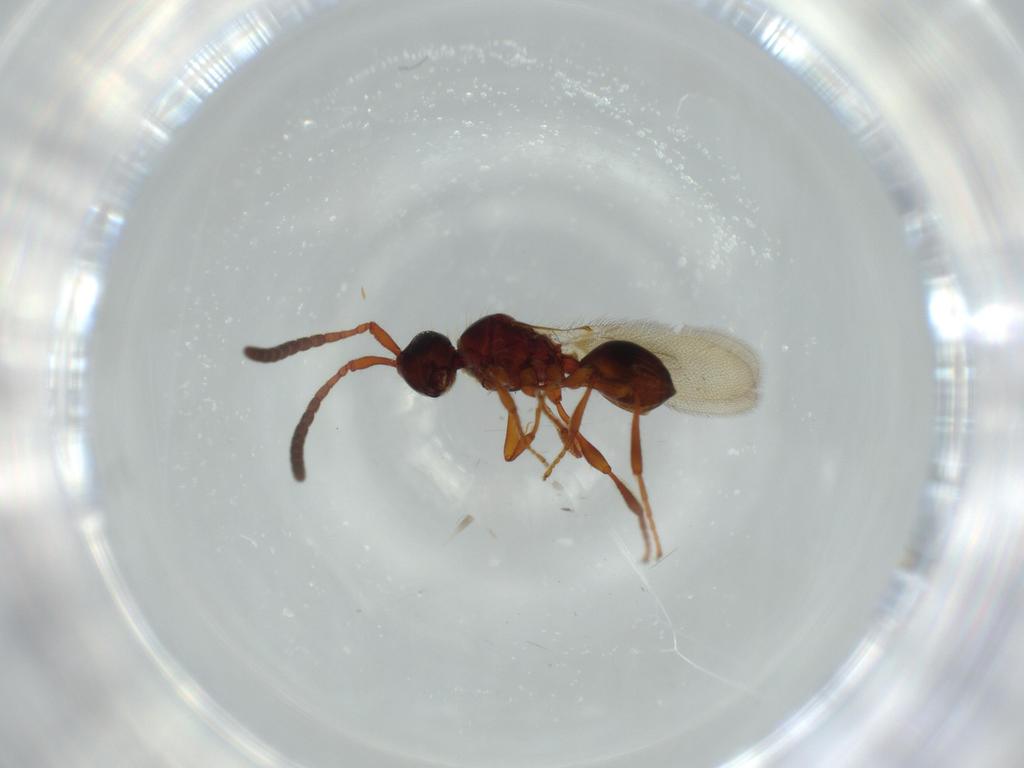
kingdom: Animalia
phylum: Arthropoda
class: Insecta
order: Hymenoptera
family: Diapriidae
